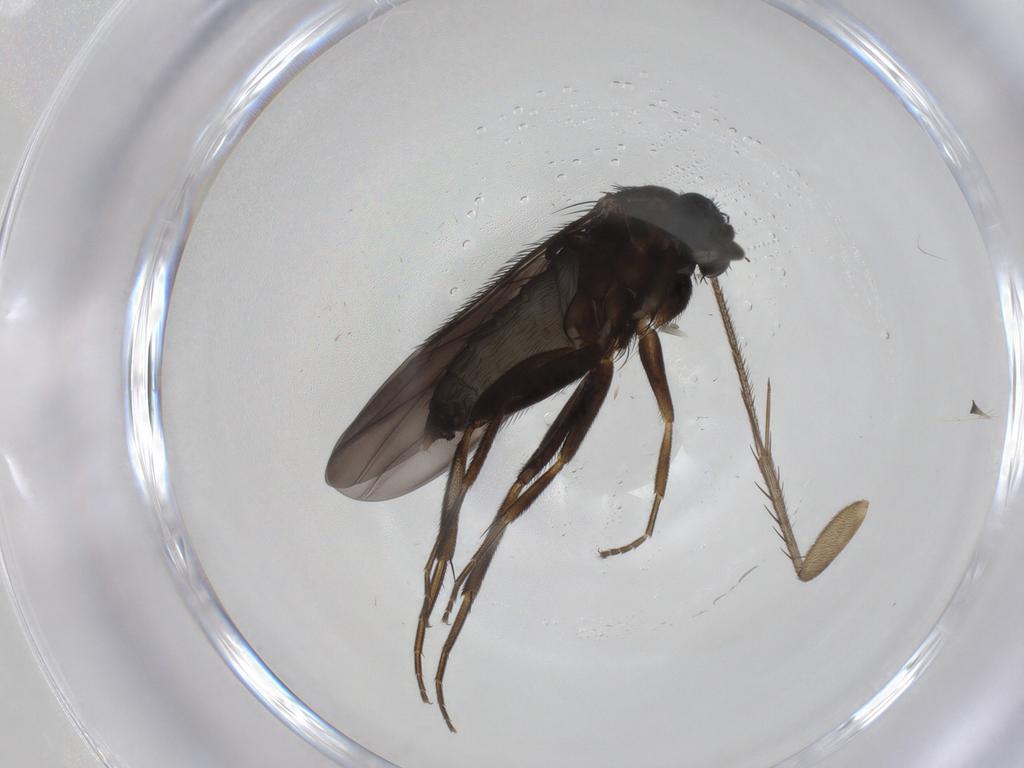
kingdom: Animalia
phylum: Arthropoda
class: Insecta
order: Diptera
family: Phoridae
